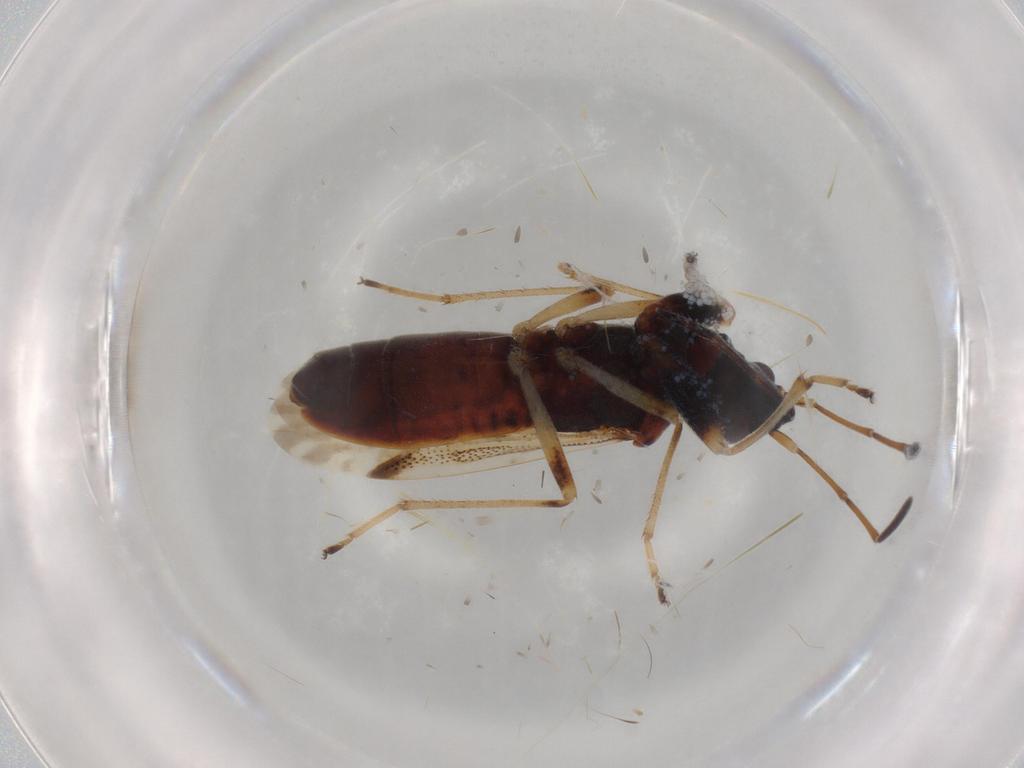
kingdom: Animalia
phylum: Arthropoda
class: Insecta
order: Hemiptera
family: Rhyparochromidae
